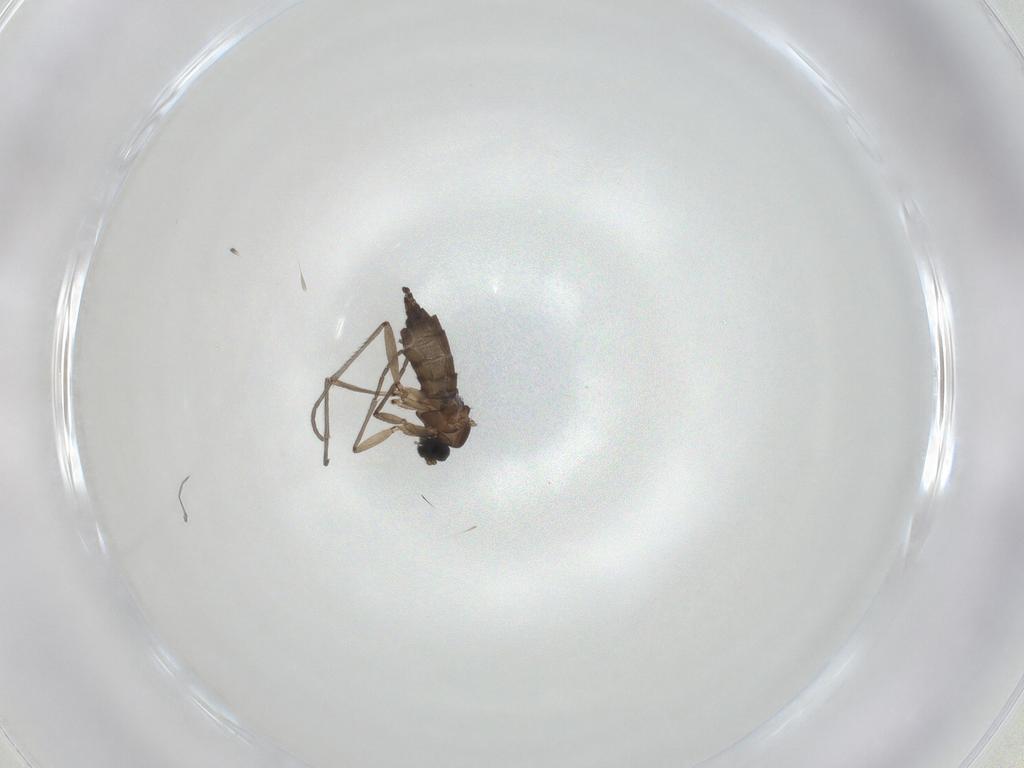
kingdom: Animalia
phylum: Arthropoda
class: Insecta
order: Diptera
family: Sciaridae
